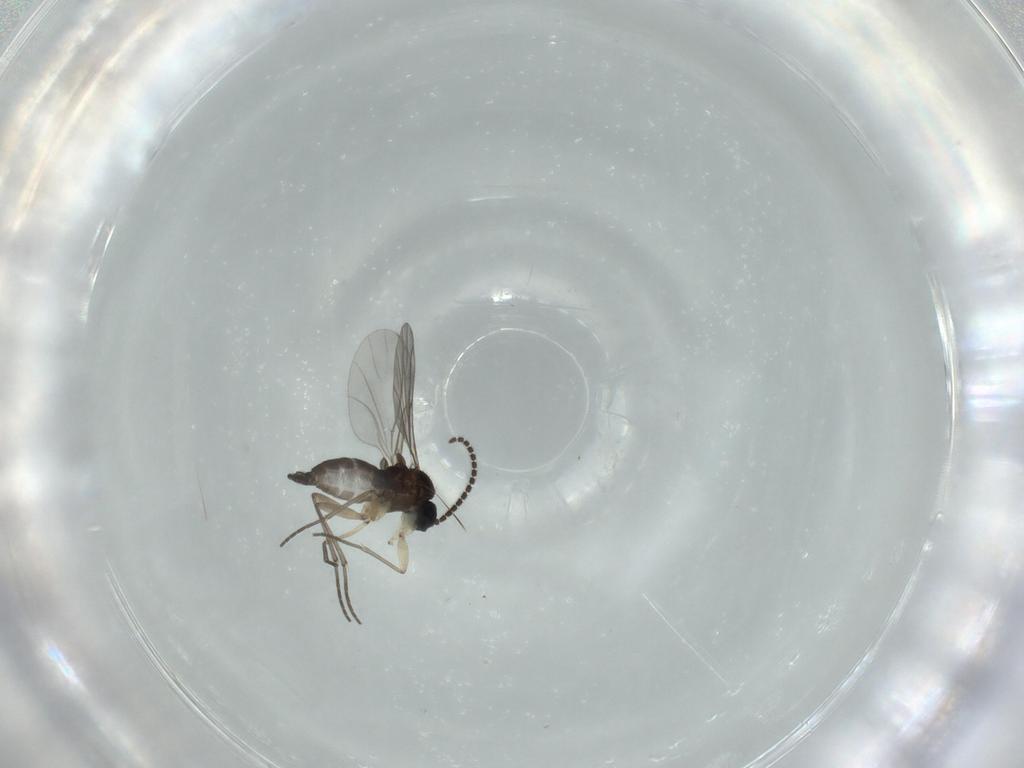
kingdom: Animalia
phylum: Arthropoda
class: Insecta
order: Diptera
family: Sciaridae
